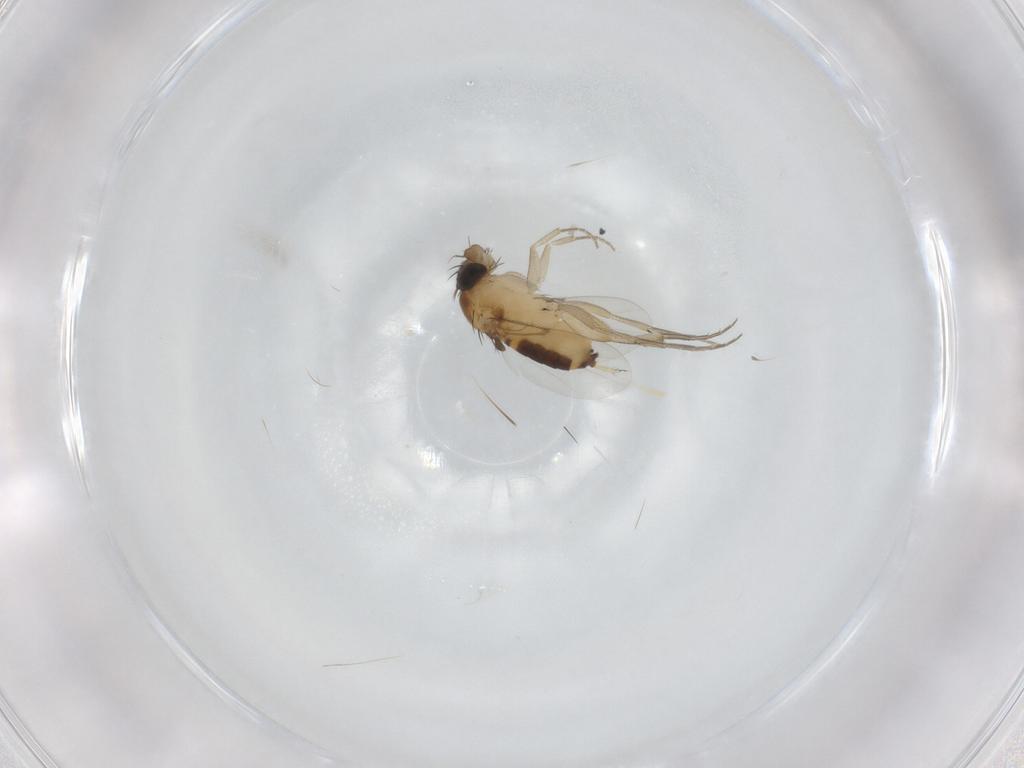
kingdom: Animalia
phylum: Arthropoda
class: Insecta
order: Diptera
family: Phoridae
